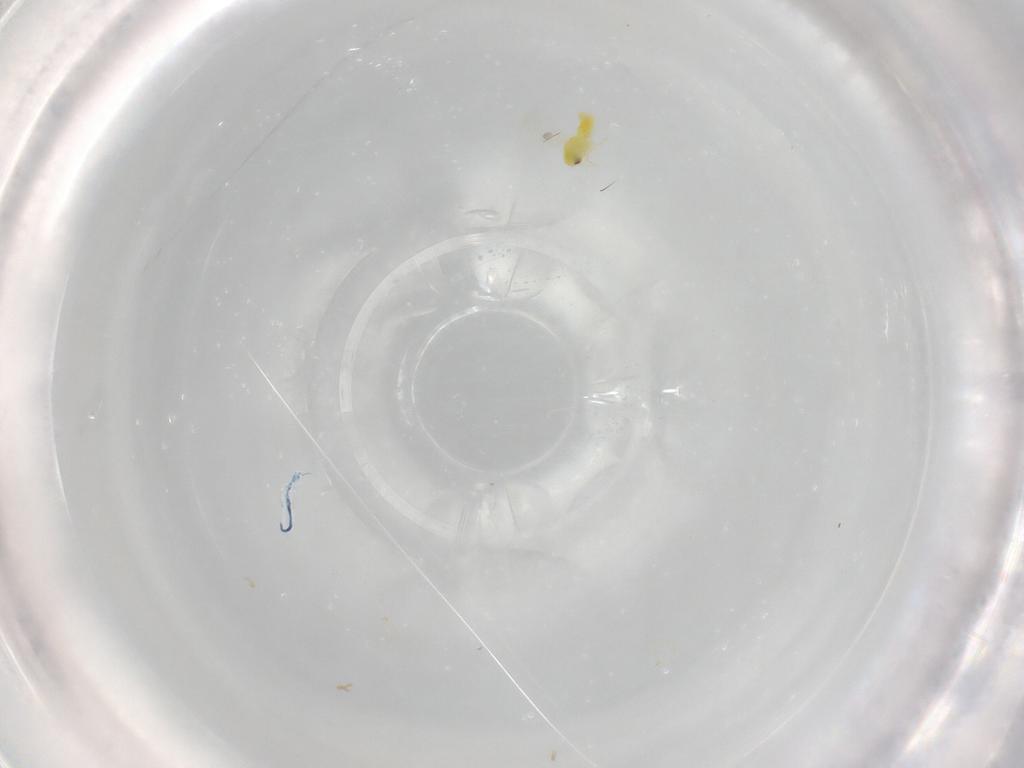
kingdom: Animalia
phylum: Arthropoda
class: Insecta
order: Hemiptera
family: Aleyrodidae
